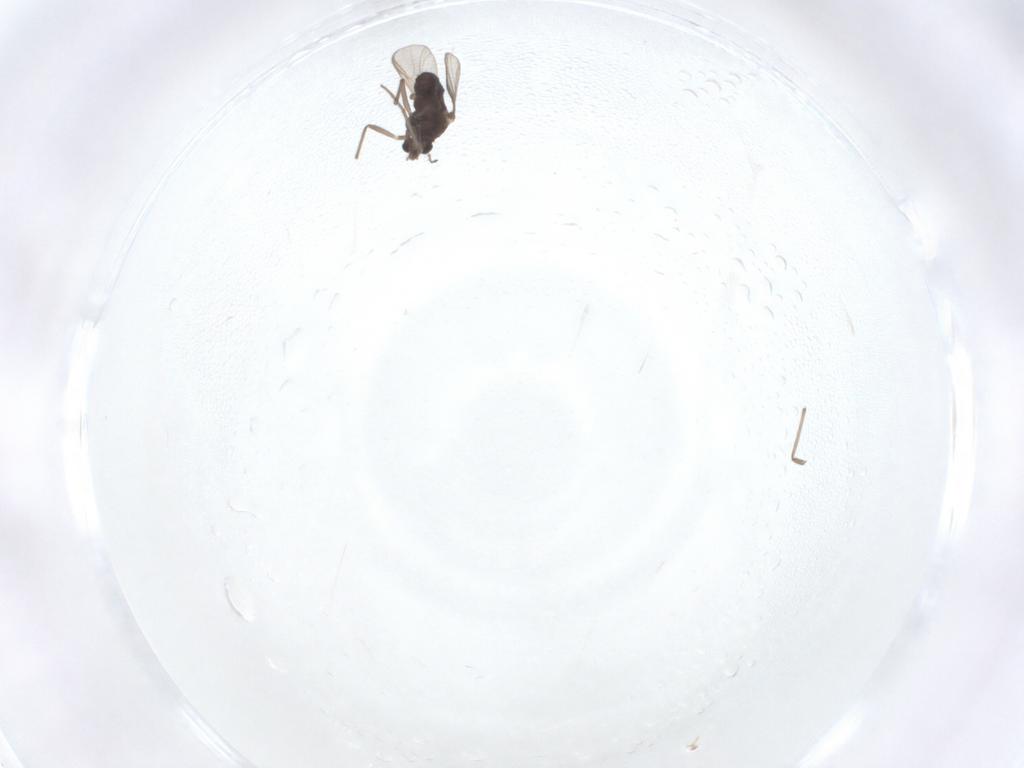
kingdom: Animalia
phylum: Arthropoda
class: Insecta
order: Diptera
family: Chironomidae
